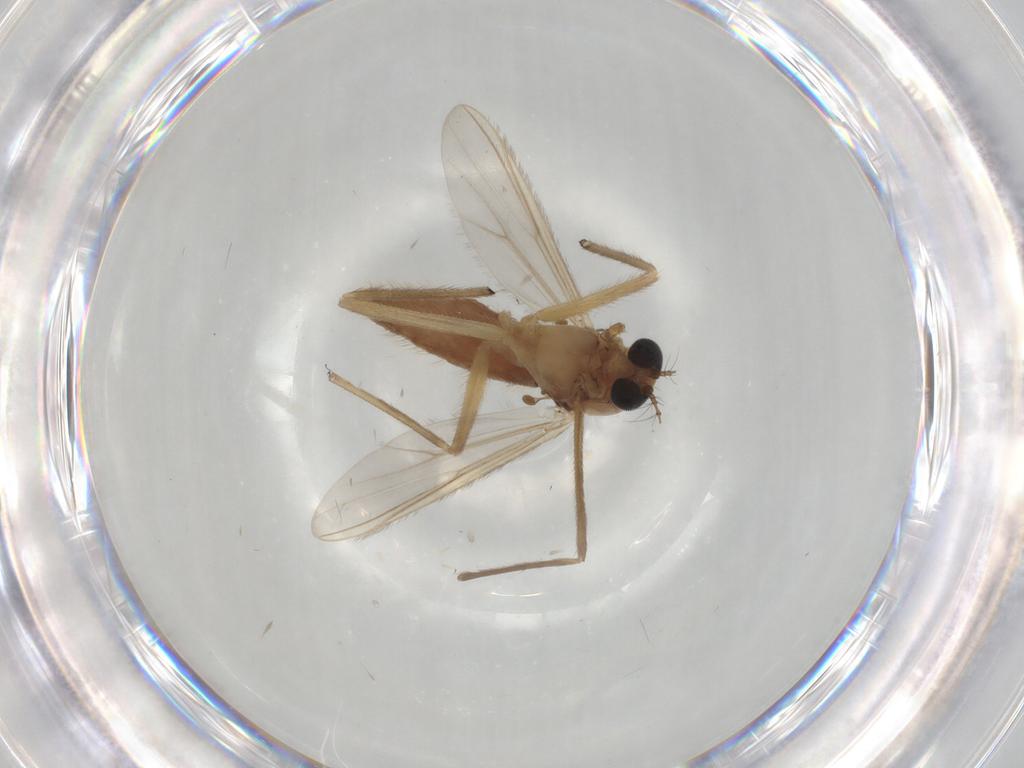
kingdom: Animalia
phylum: Arthropoda
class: Insecta
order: Diptera
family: Chironomidae
